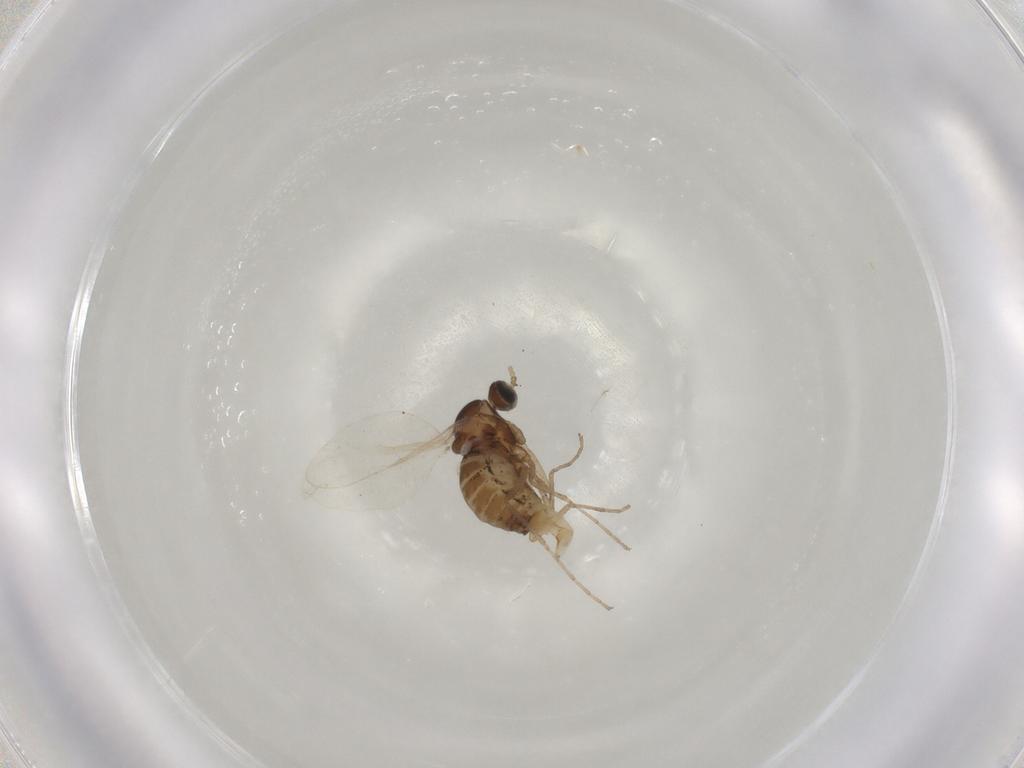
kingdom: Animalia
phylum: Arthropoda
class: Insecta
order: Diptera
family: Cecidomyiidae
